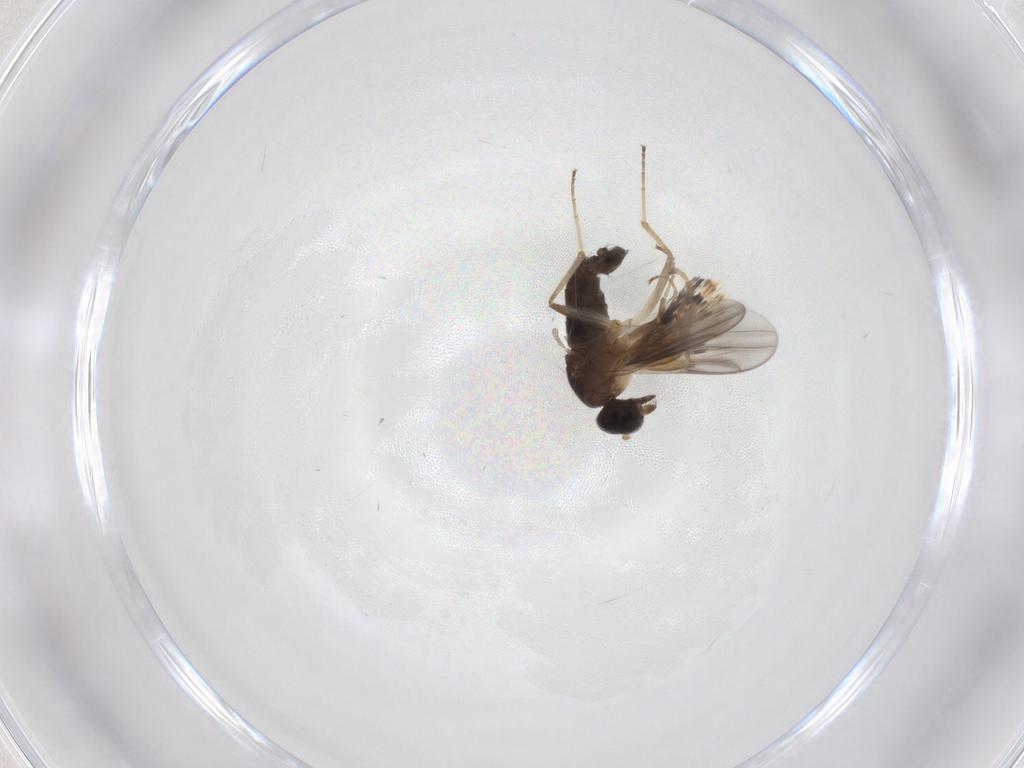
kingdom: Animalia
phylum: Arthropoda
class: Insecta
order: Diptera
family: Hybotidae
